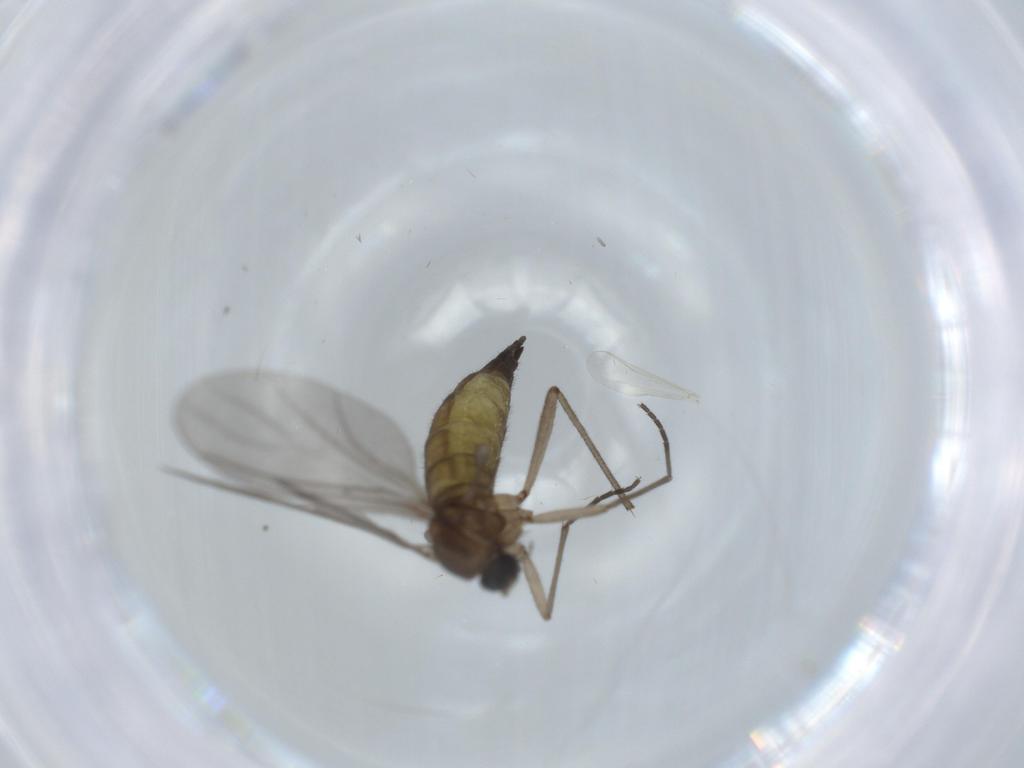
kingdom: Animalia
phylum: Arthropoda
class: Insecta
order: Diptera
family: Sciaridae
